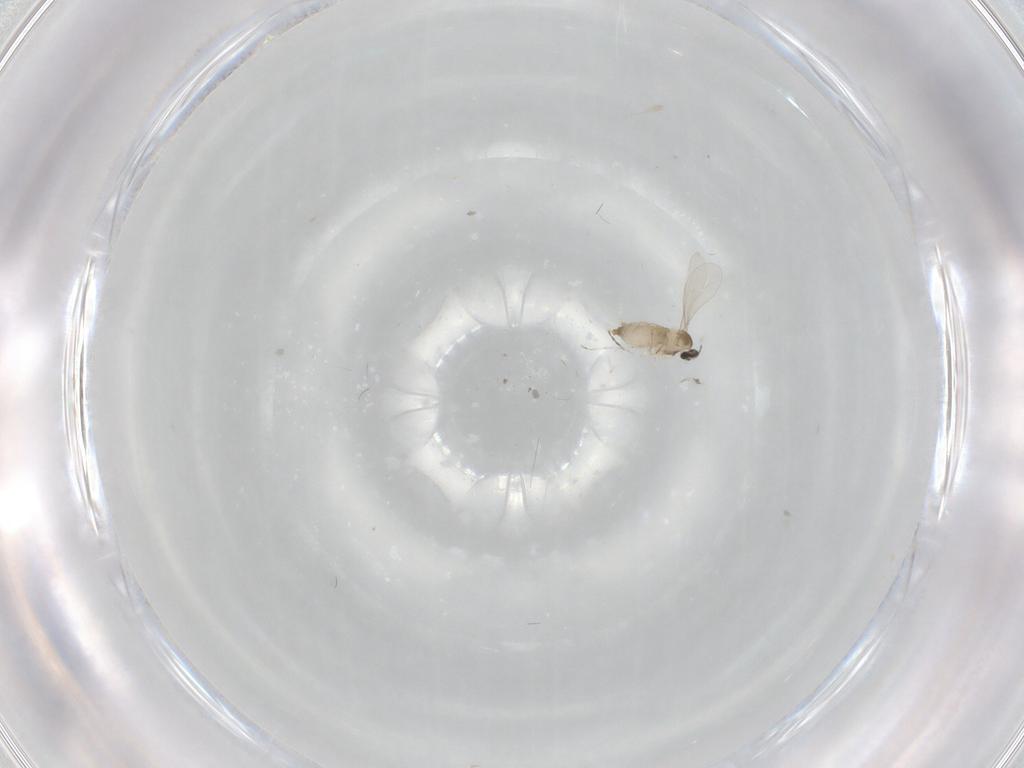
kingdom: Animalia
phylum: Arthropoda
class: Insecta
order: Diptera
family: Dolichopodidae
